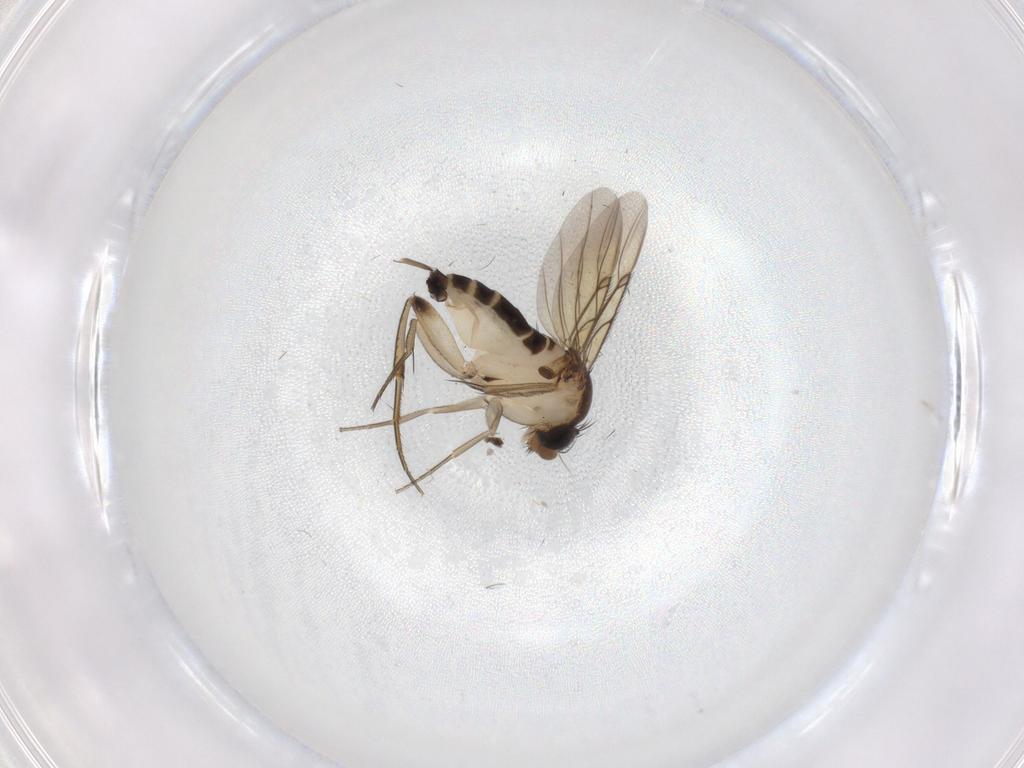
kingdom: Animalia
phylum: Arthropoda
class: Insecta
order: Diptera
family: Phoridae
